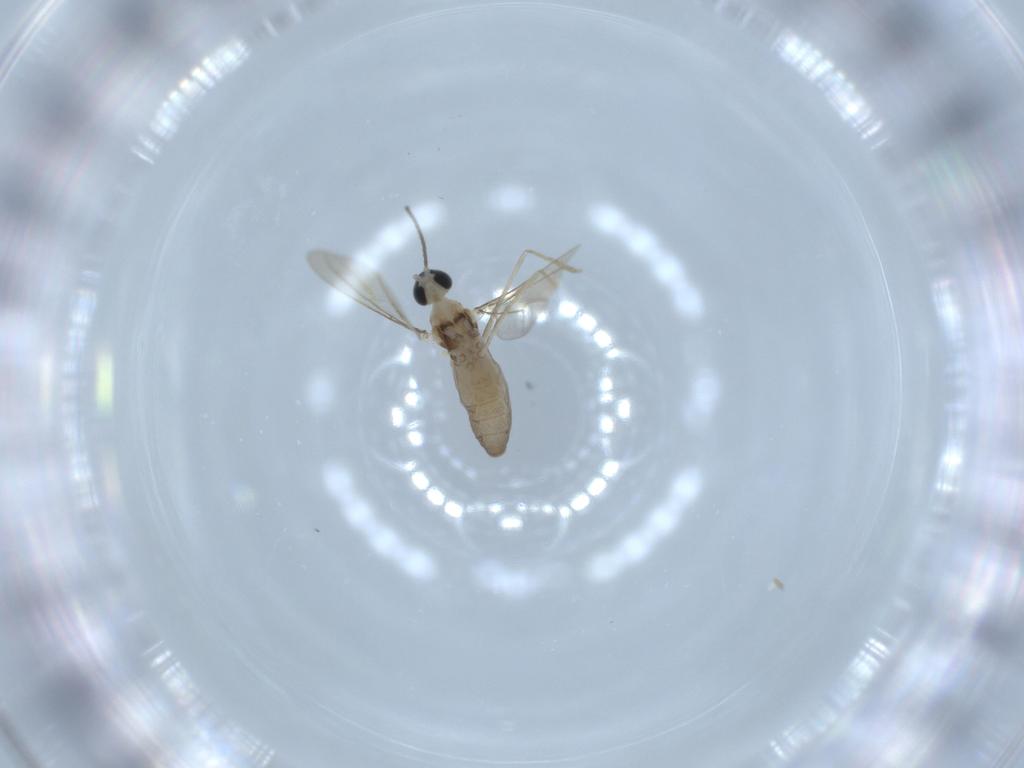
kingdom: Animalia
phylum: Arthropoda
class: Insecta
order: Diptera
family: Cecidomyiidae
